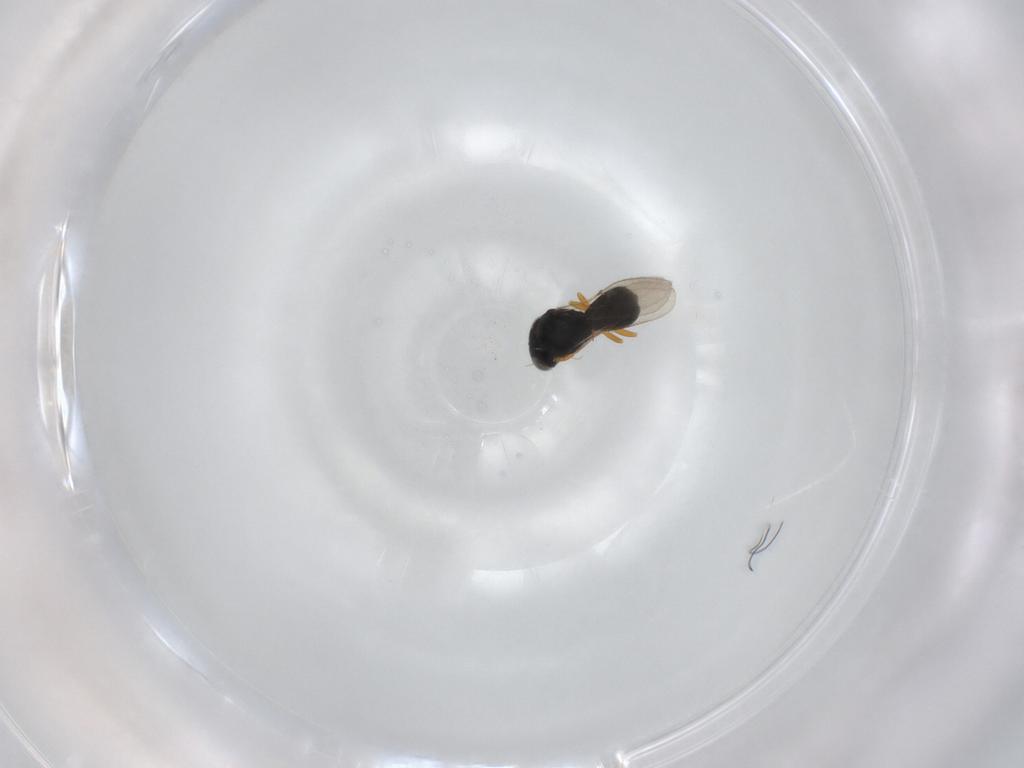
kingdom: Animalia
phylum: Arthropoda
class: Insecta
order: Hymenoptera
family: Scelionidae
